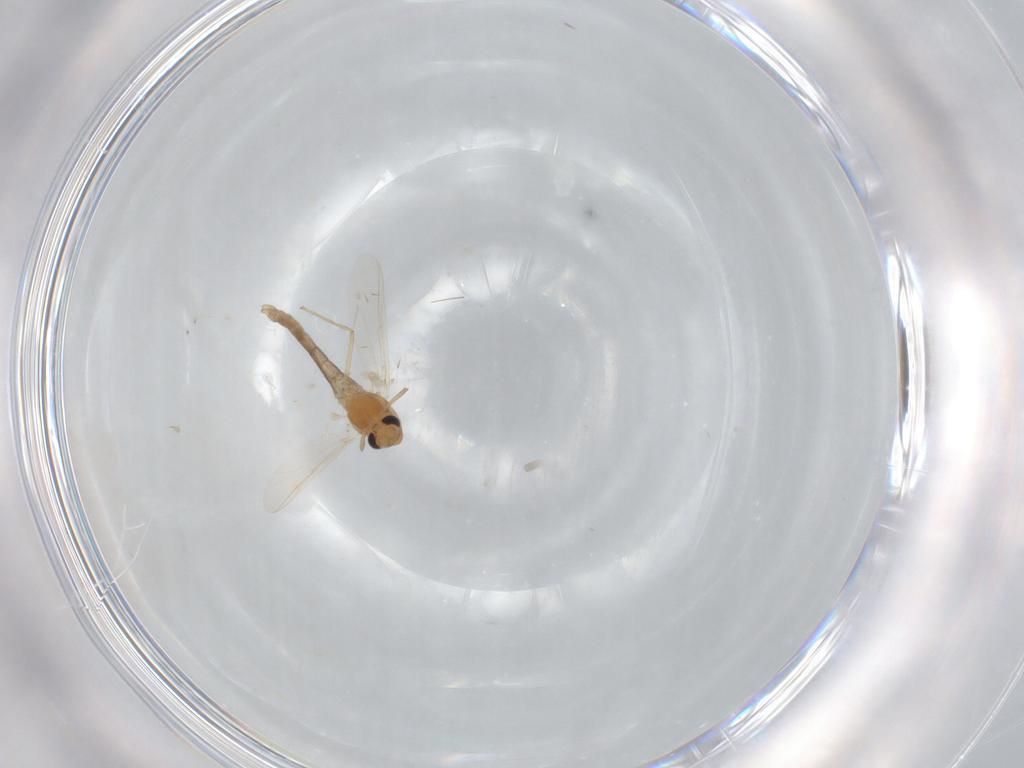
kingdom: Animalia
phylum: Arthropoda
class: Insecta
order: Diptera
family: Chironomidae
